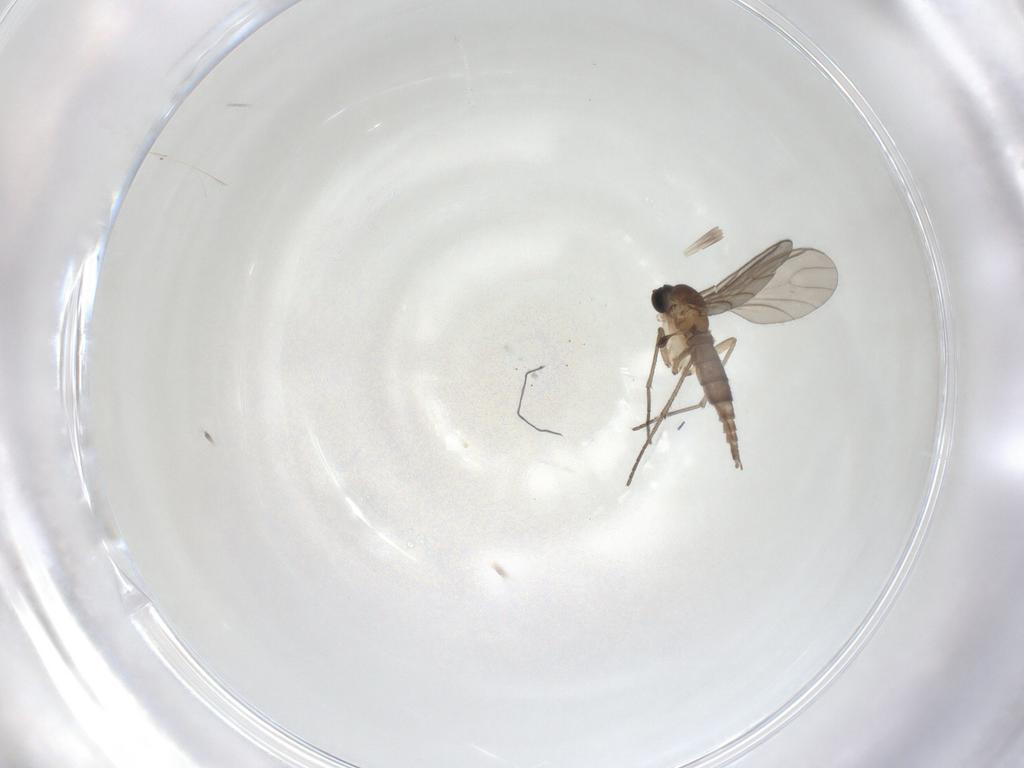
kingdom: Animalia
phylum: Arthropoda
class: Insecta
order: Diptera
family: Sciaridae
